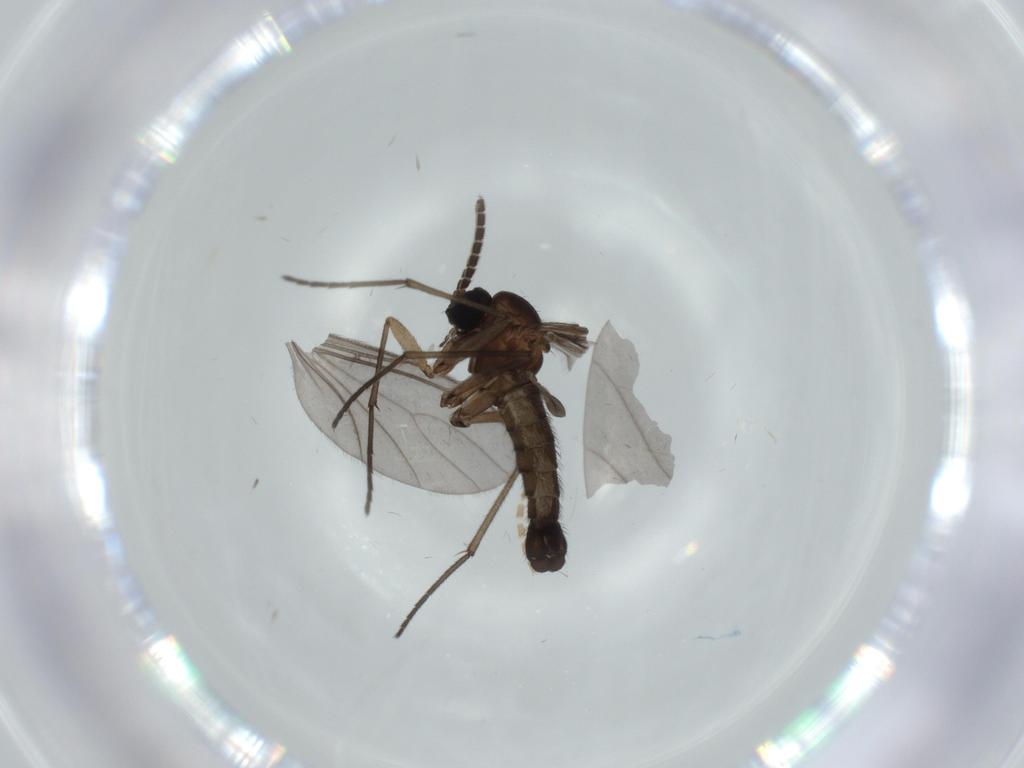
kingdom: Animalia
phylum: Arthropoda
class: Insecta
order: Diptera
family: Sciaridae
